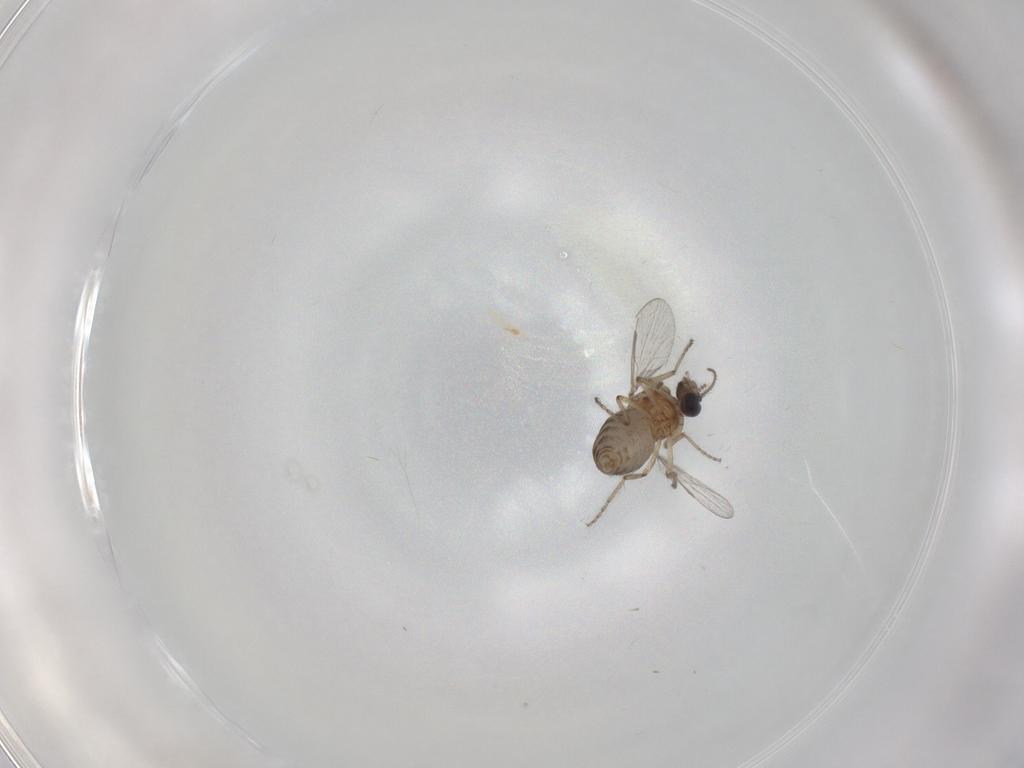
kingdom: Animalia
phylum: Arthropoda
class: Insecta
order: Diptera
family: Ceratopogonidae
